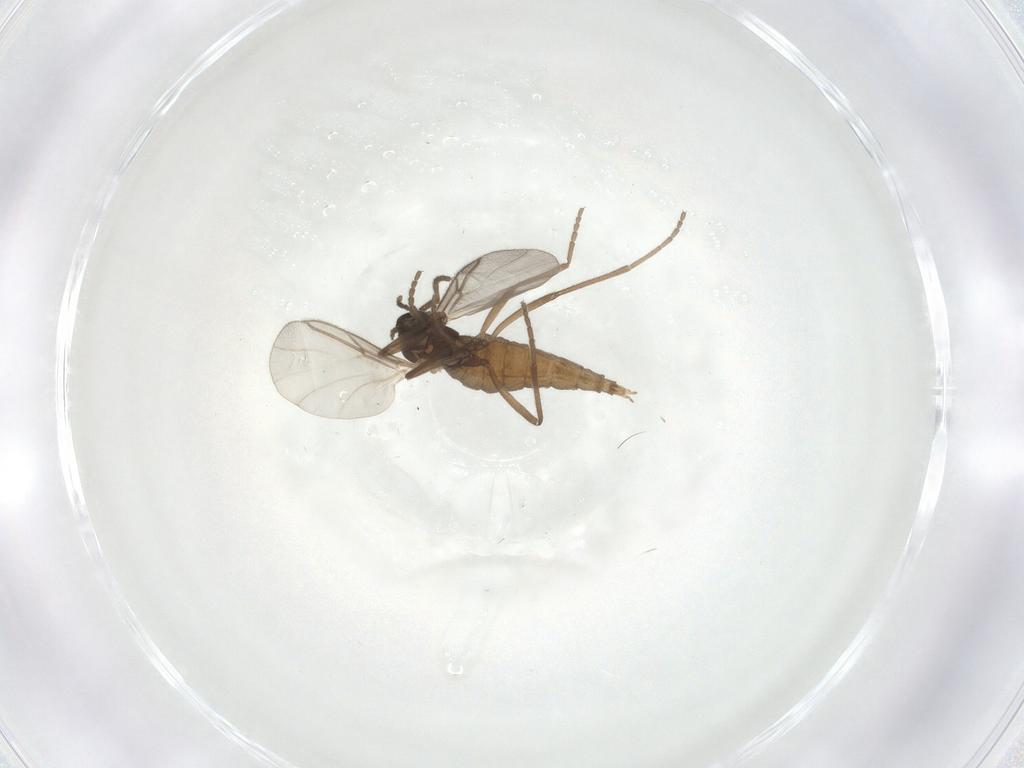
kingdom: Animalia
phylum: Arthropoda
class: Insecta
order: Diptera
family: Cecidomyiidae
